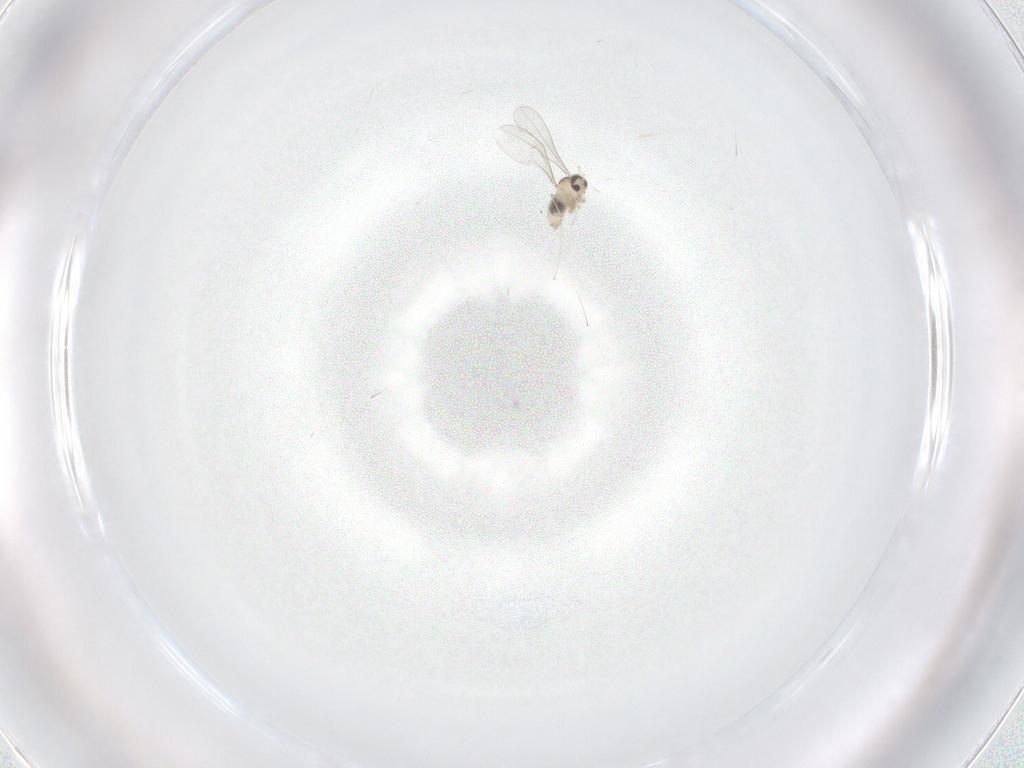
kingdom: Animalia
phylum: Arthropoda
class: Insecta
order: Diptera
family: Cecidomyiidae
